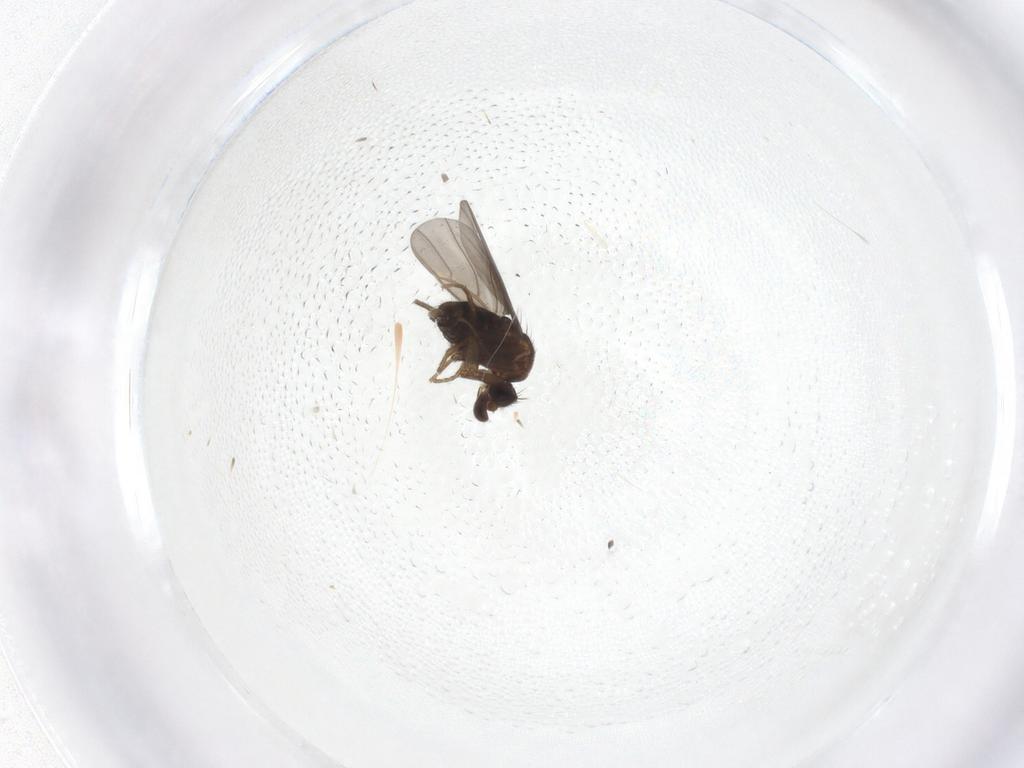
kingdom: Animalia
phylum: Arthropoda
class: Insecta
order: Diptera
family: Phoridae
